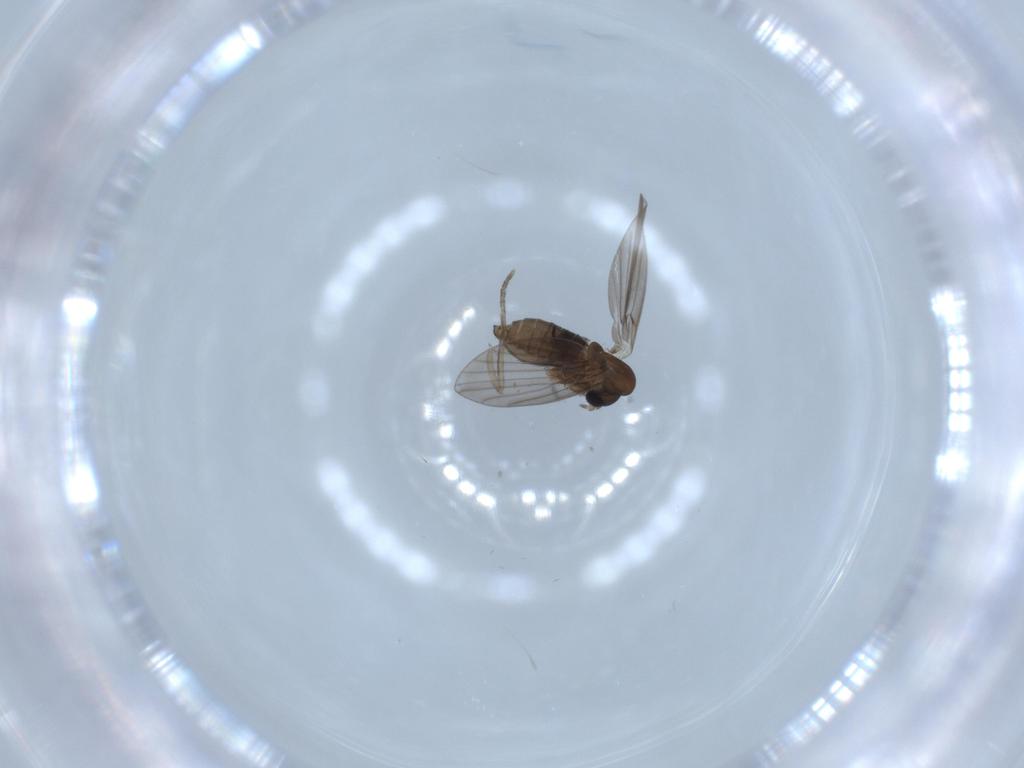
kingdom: Animalia
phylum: Arthropoda
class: Insecta
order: Diptera
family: Psychodidae
